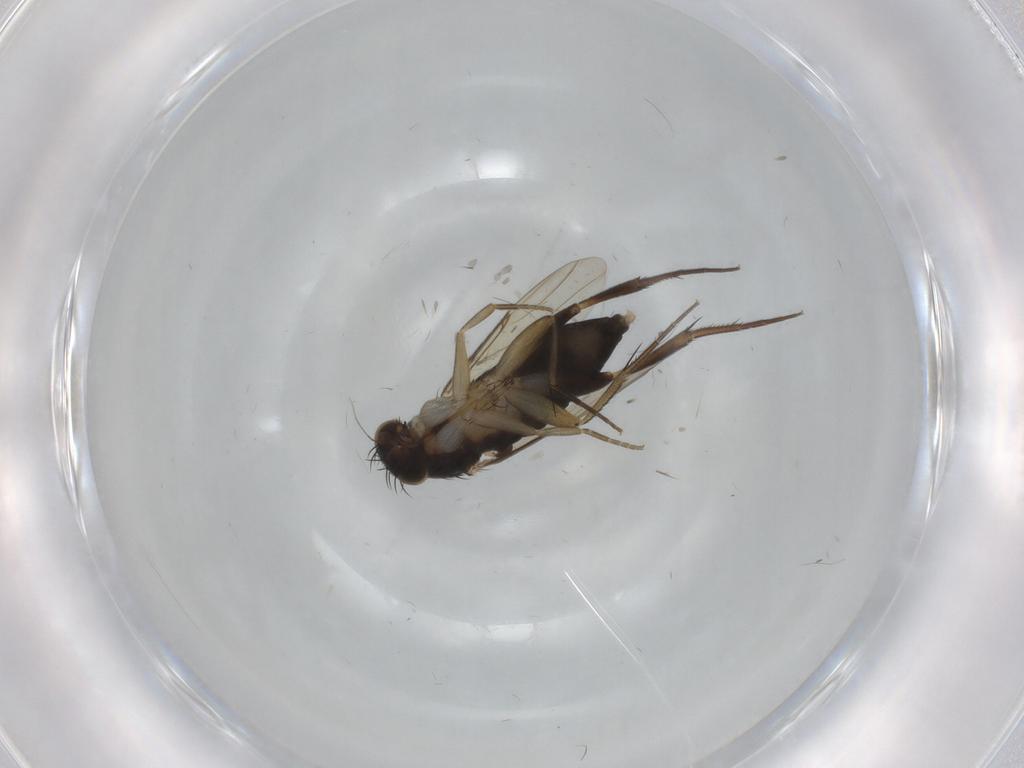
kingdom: Animalia
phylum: Arthropoda
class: Insecta
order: Diptera
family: Phoridae
